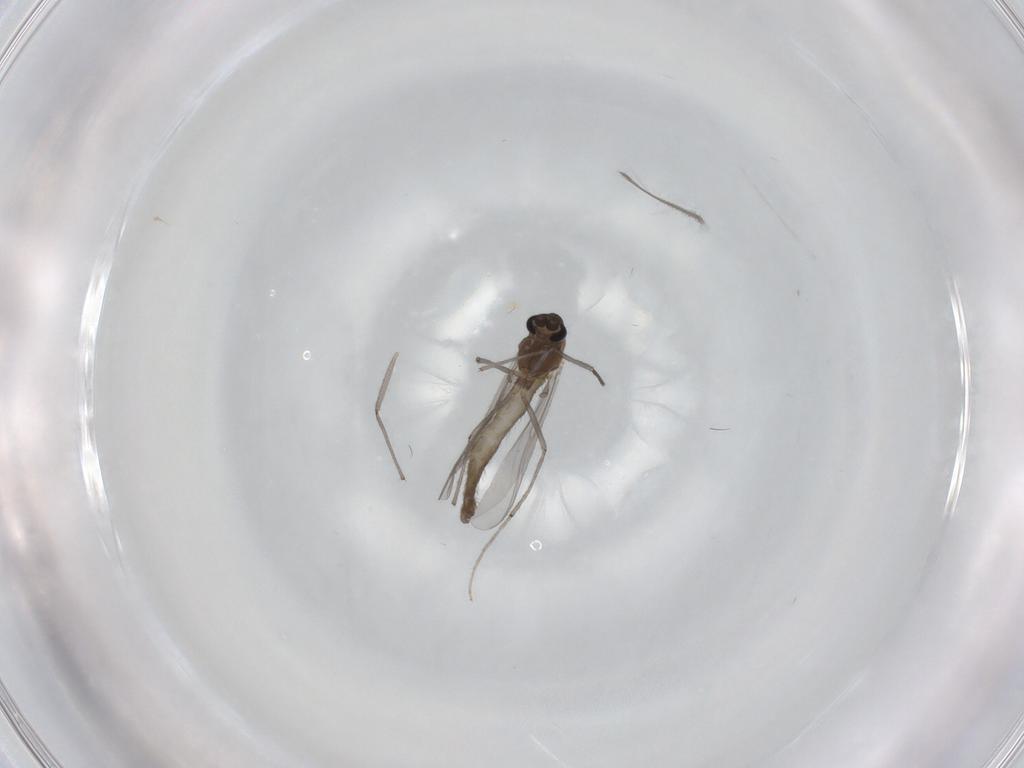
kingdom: Animalia
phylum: Arthropoda
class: Insecta
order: Diptera
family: Chironomidae
